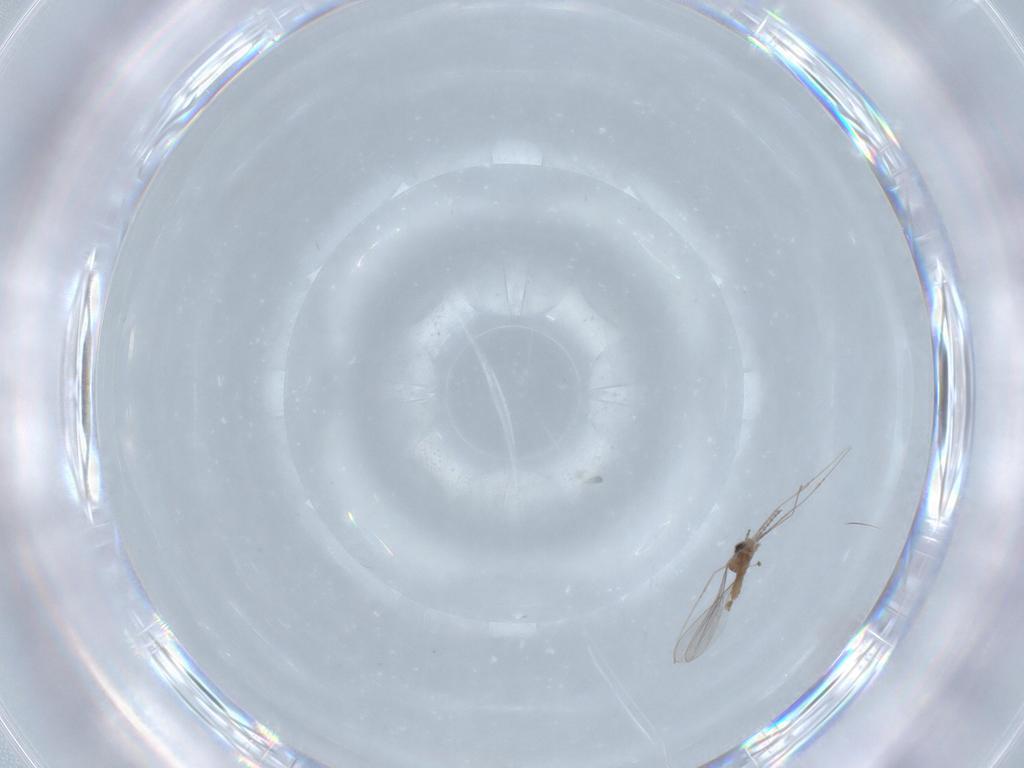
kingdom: Animalia
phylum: Arthropoda
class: Insecta
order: Diptera
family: Cecidomyiidae
